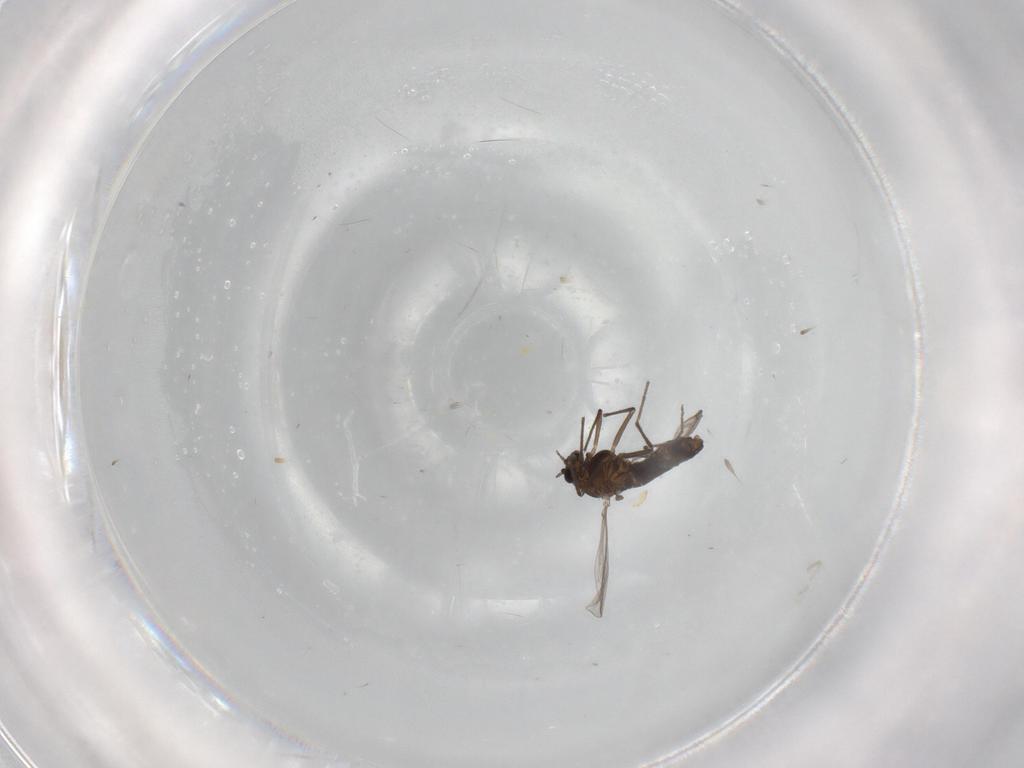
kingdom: Animalia
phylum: Arthropoda
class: Insecta
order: Diptera
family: Chironomidae
